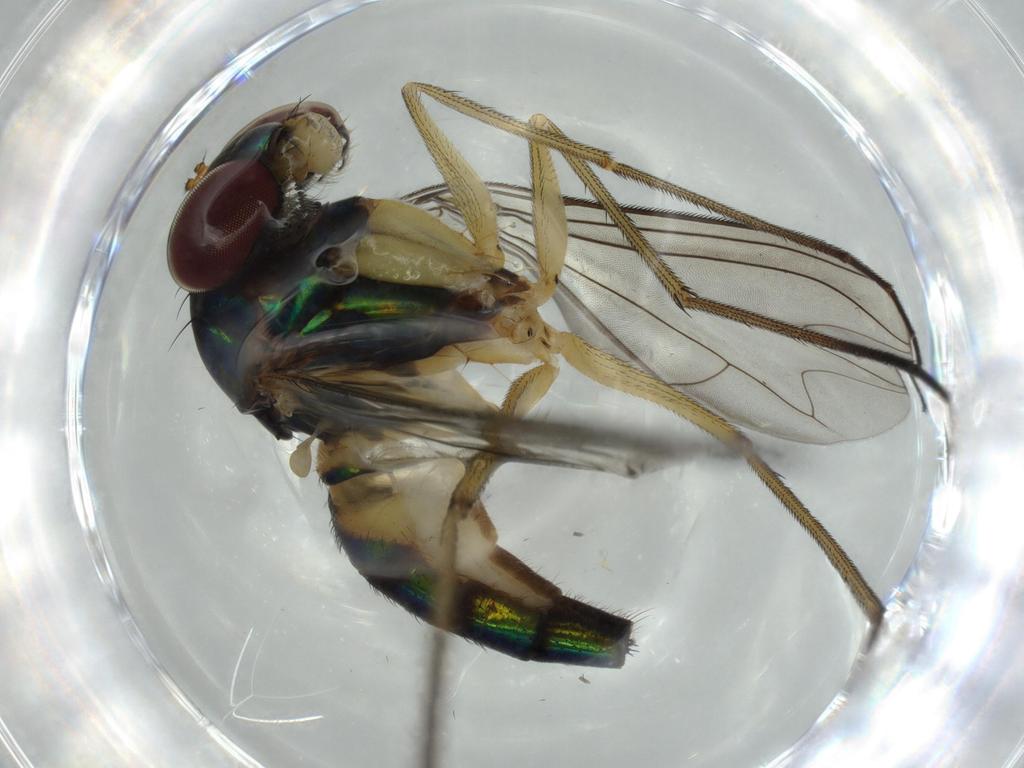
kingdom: Animalia
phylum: Arthropoda
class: Insecta
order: Diptera
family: Dolichopodidae
